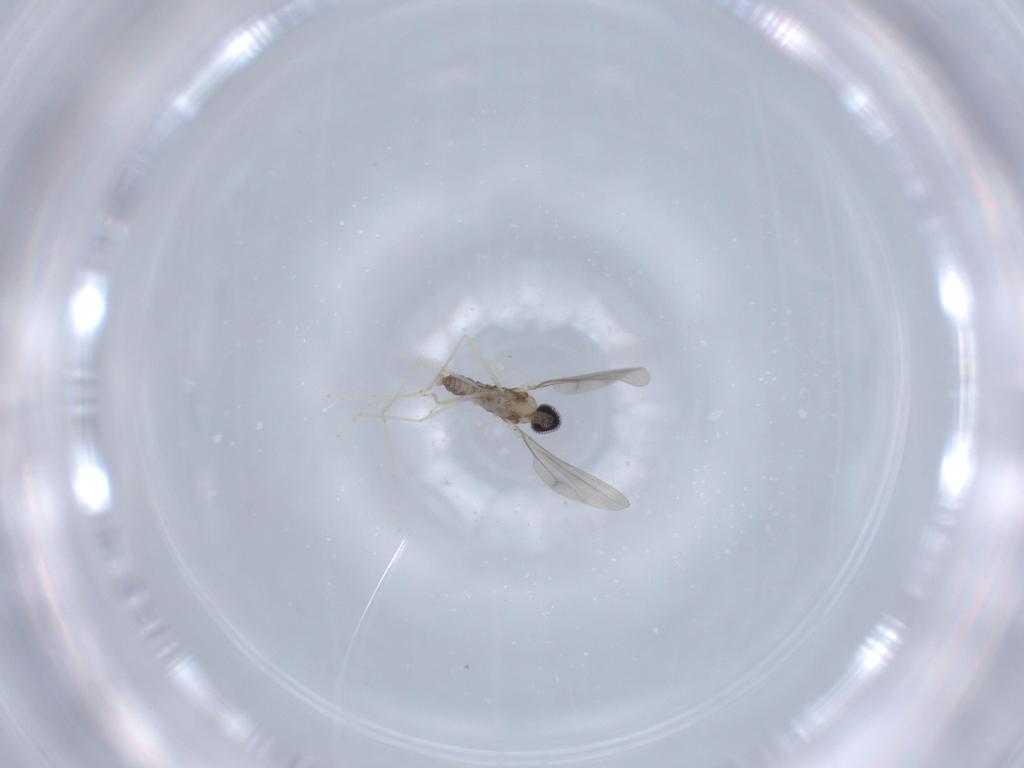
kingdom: Animalia
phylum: Arthropoda
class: Insecta
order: Diptera
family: Cecidomyiidae
